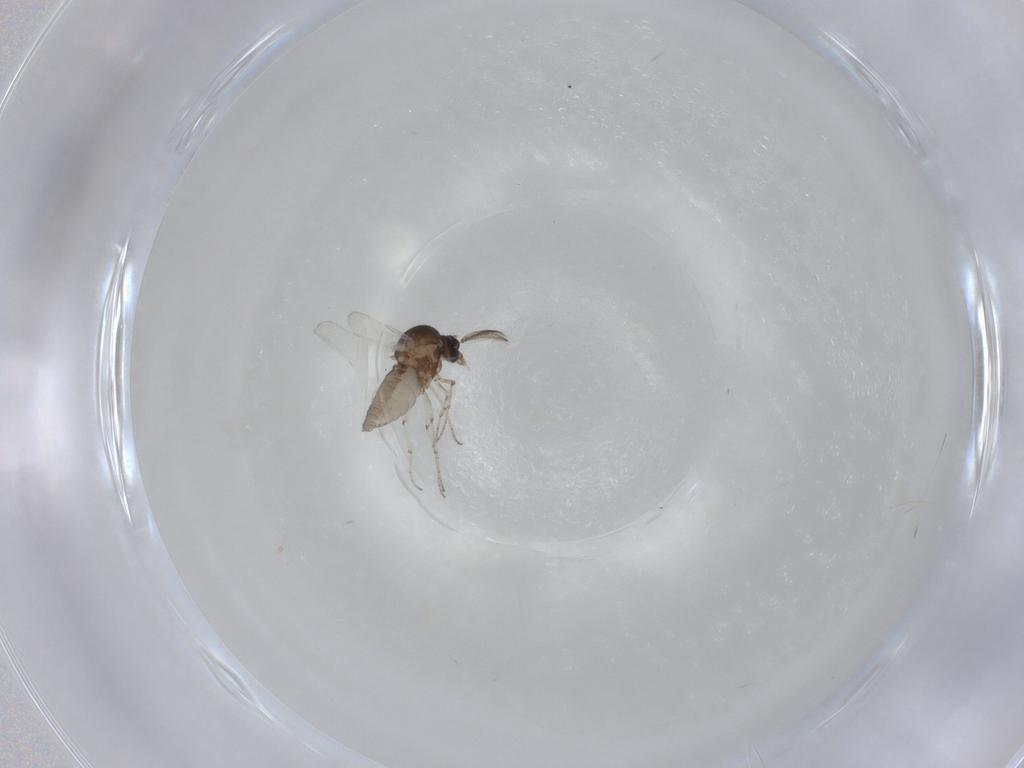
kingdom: Animalia
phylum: Arthropoda
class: Insecta
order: Diptera
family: Ceratopogonidae
